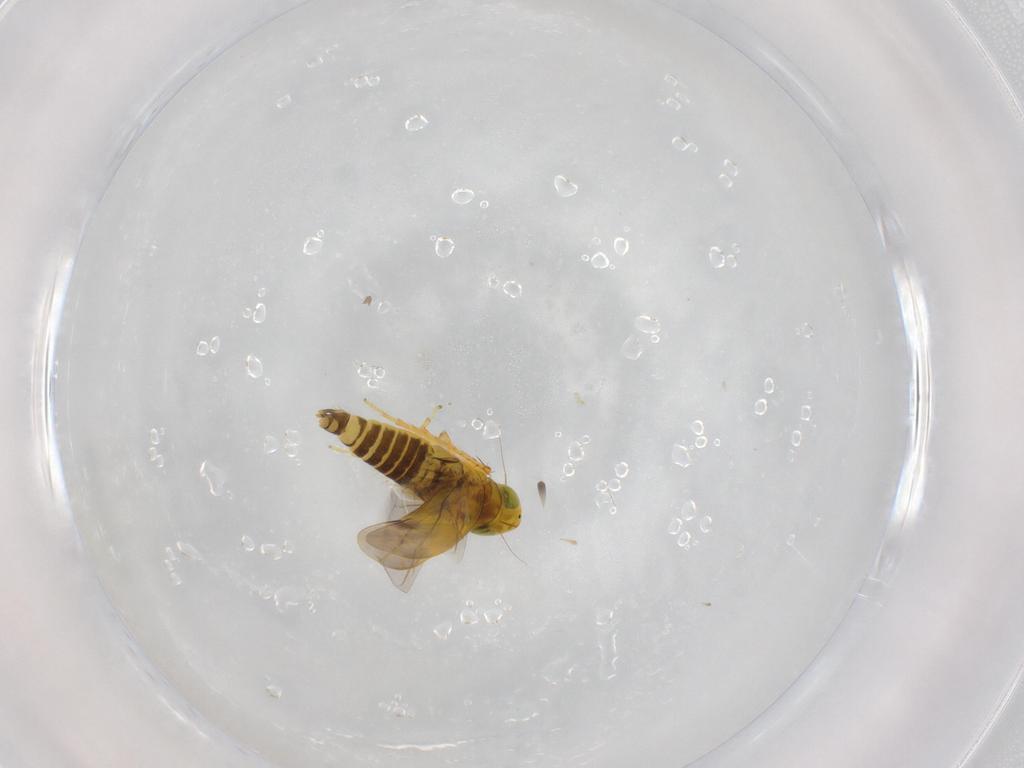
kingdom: Animalia
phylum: Arthropoda
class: Insecta
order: Hemiptera
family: Cicadellidae
